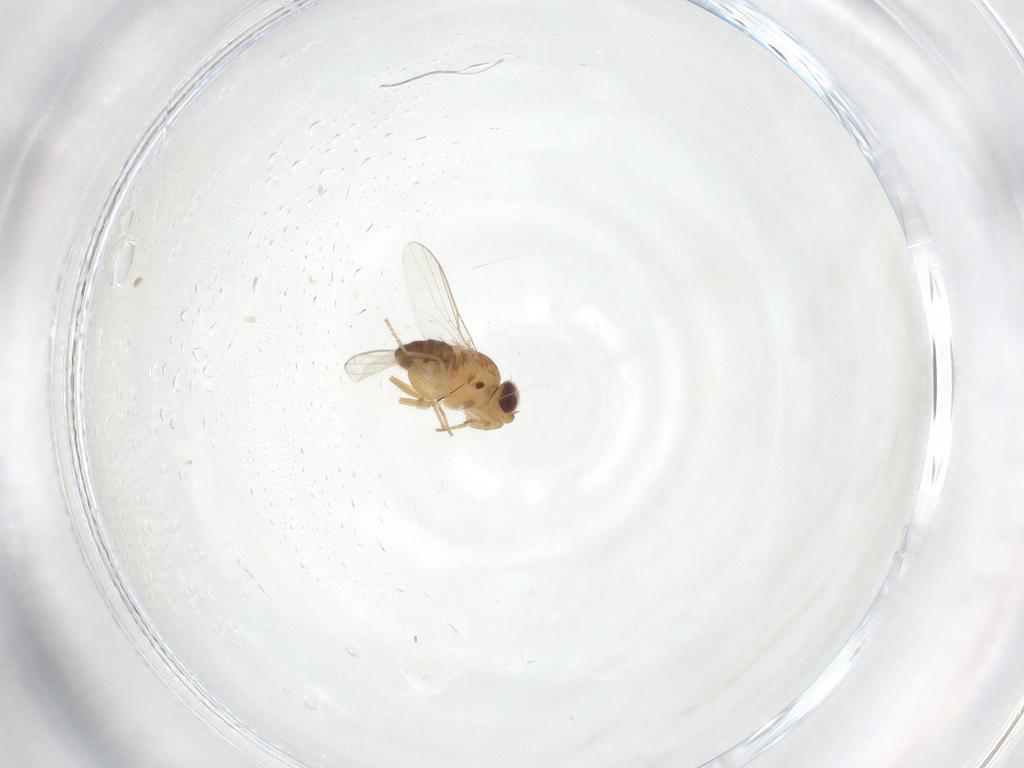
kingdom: Animalia
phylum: Arthropoda
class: Insecta
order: Diptera
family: Chloropidae
